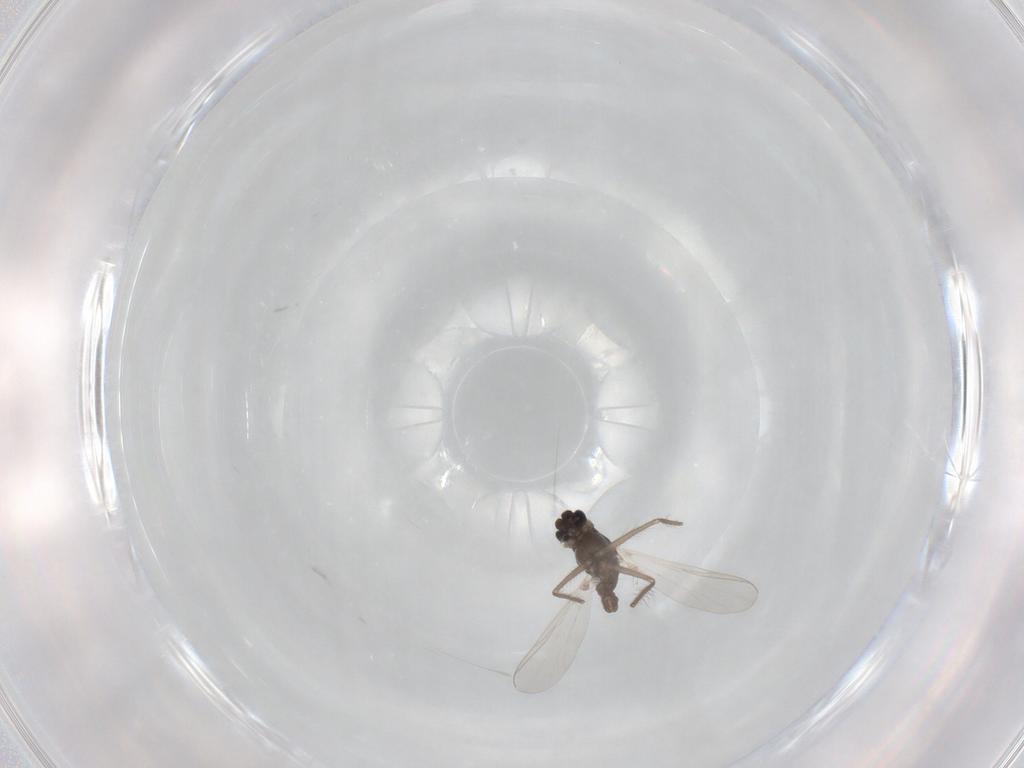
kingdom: Animalia
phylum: Arthropoda
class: Insecta
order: Diptera
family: Chironomidae
